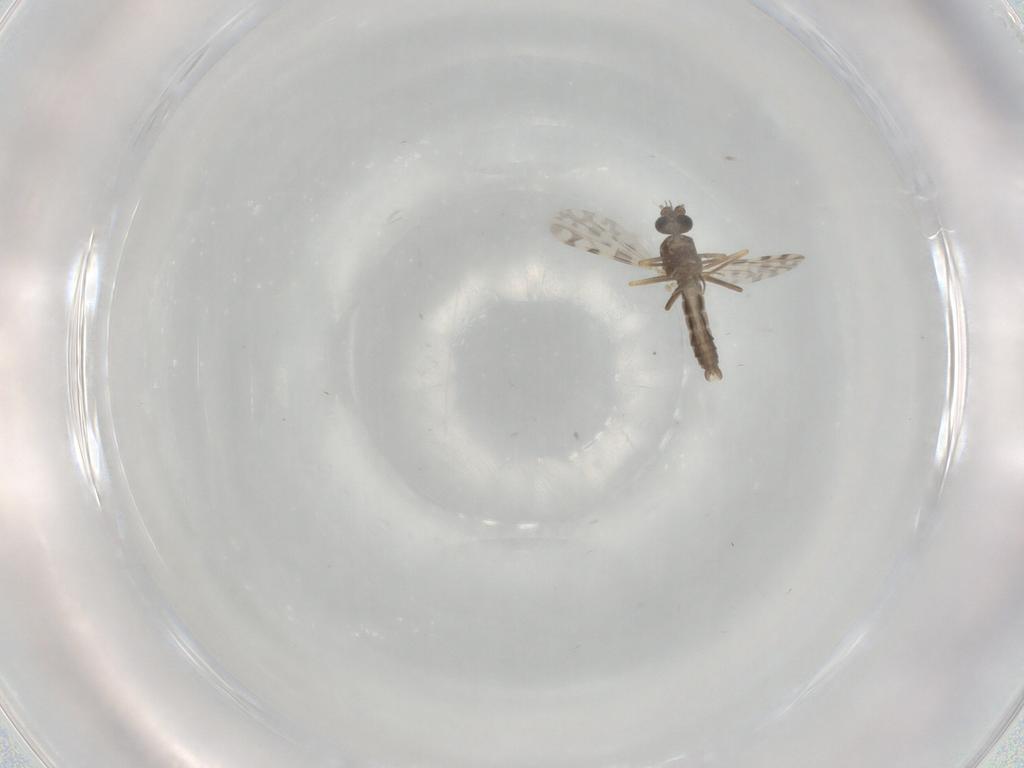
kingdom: Animalia
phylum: Arthropoda
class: Insecta
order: Diptera
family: Ceratopogonidae
